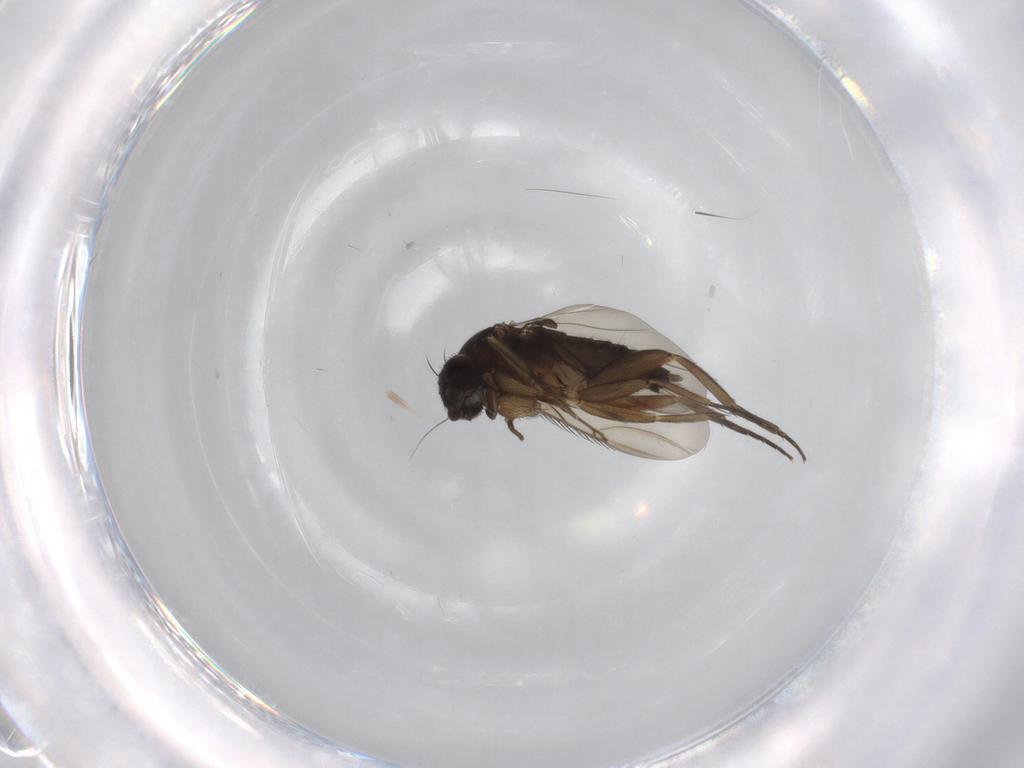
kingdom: Animalia
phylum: Arthropoda
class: Insecta
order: Diptera
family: Phoridae
